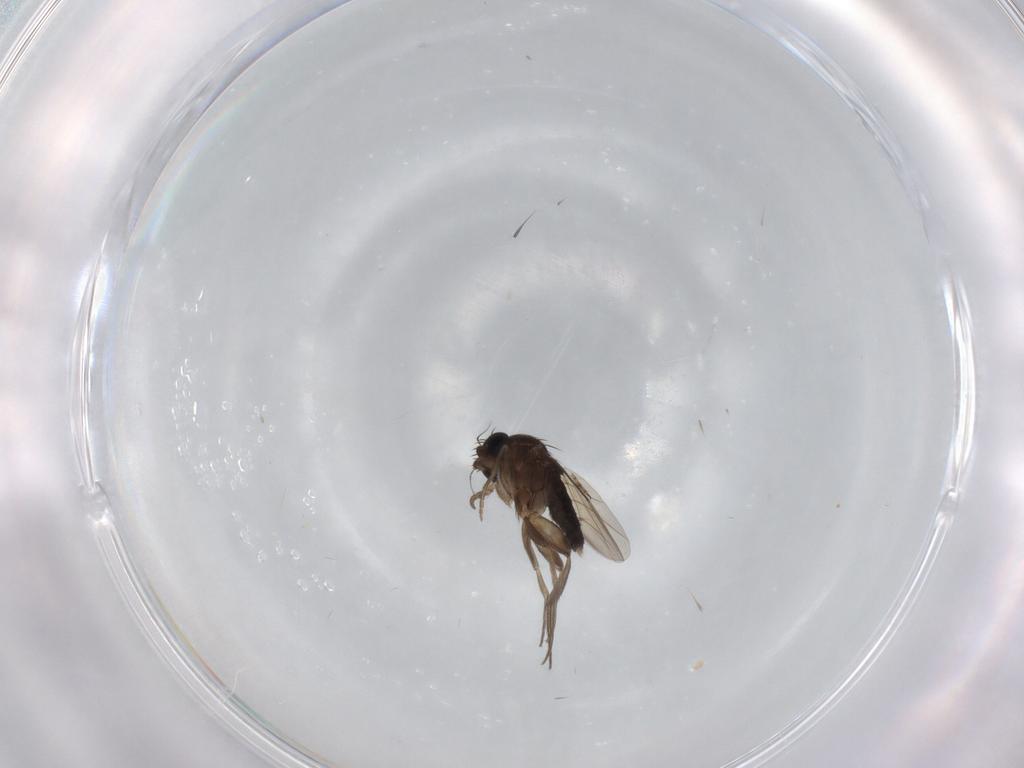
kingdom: Animalia
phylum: Arthropoda
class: Insecta
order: Diptera
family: Phoridae
